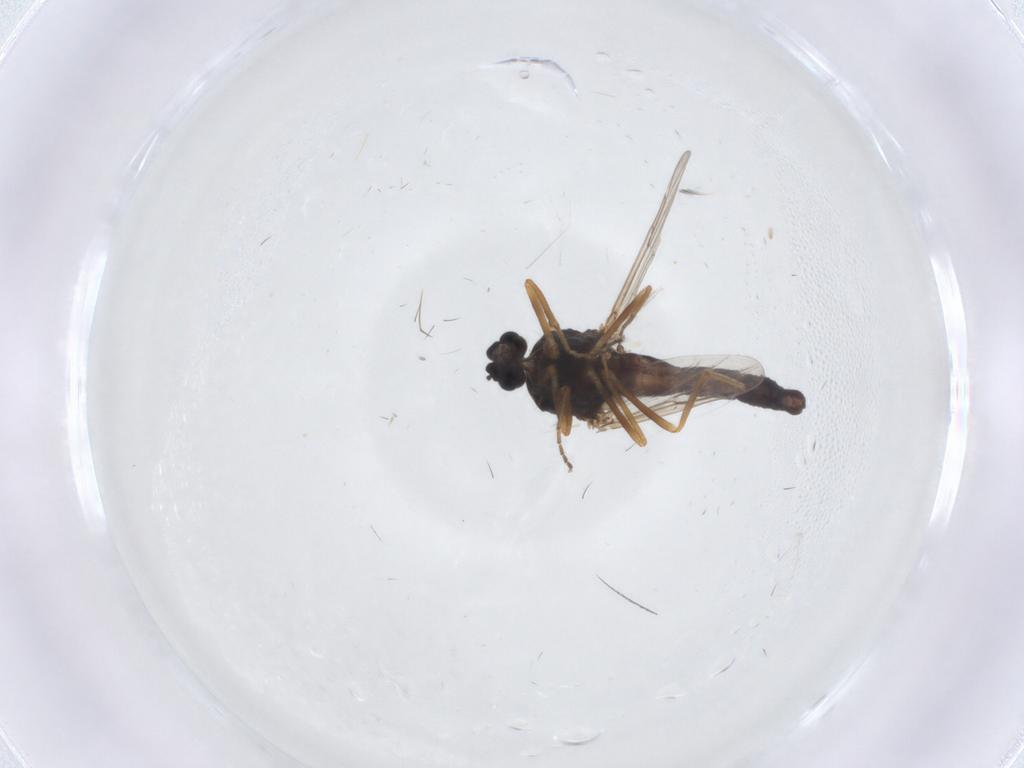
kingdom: Animalia
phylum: Arthropoda
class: Insecta
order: Diptera
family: Ceratopogonidae
